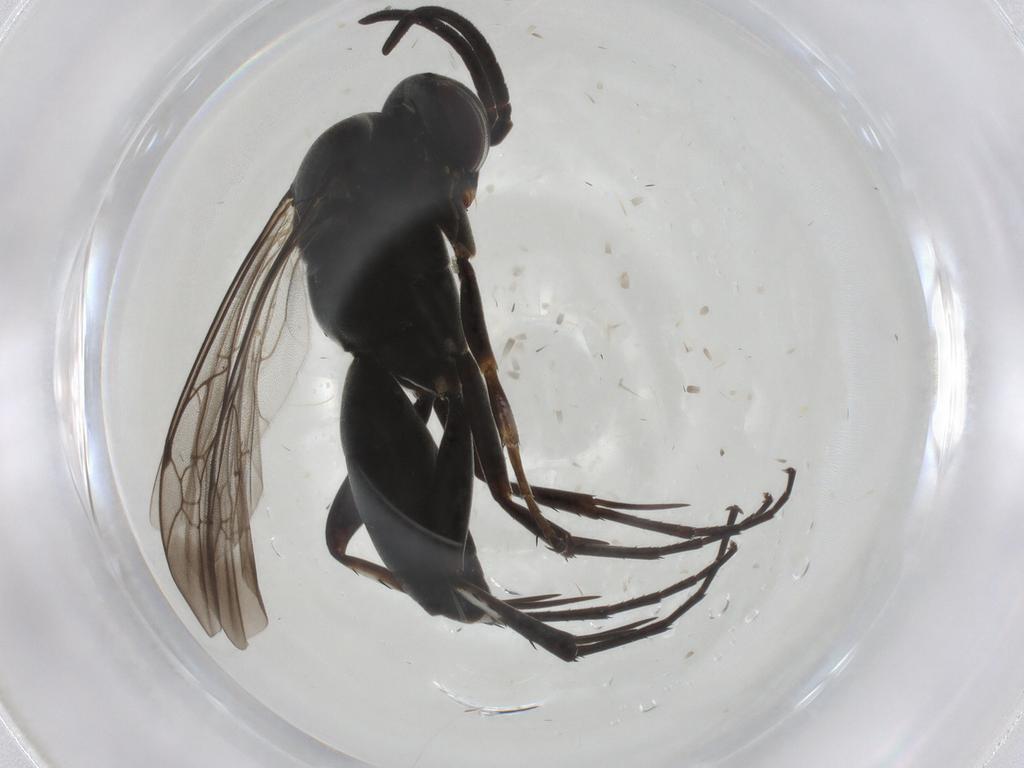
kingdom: Animalia
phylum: Arthropoda
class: Insecta
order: Hymenoptera
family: Pompilidae
